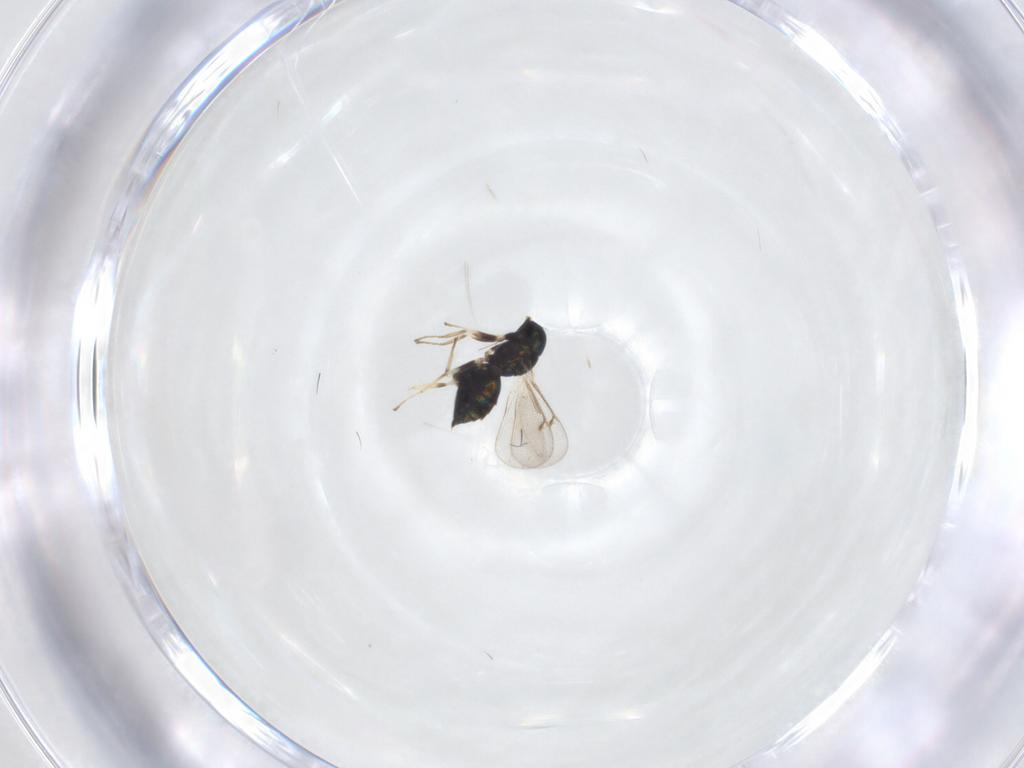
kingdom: Animalia
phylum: Arthropoda
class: Insecta
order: Hymenoptera
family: Eulophidae
